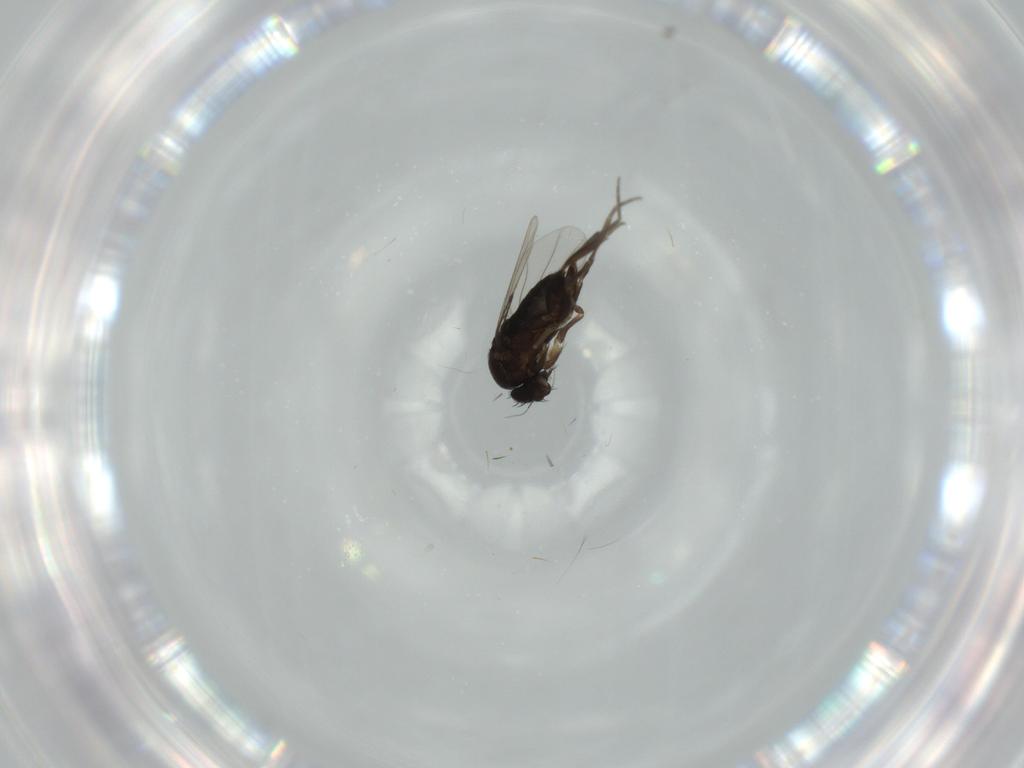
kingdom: Animalia
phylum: Arthropoda
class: Insecta
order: Diptera
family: Phoridae
